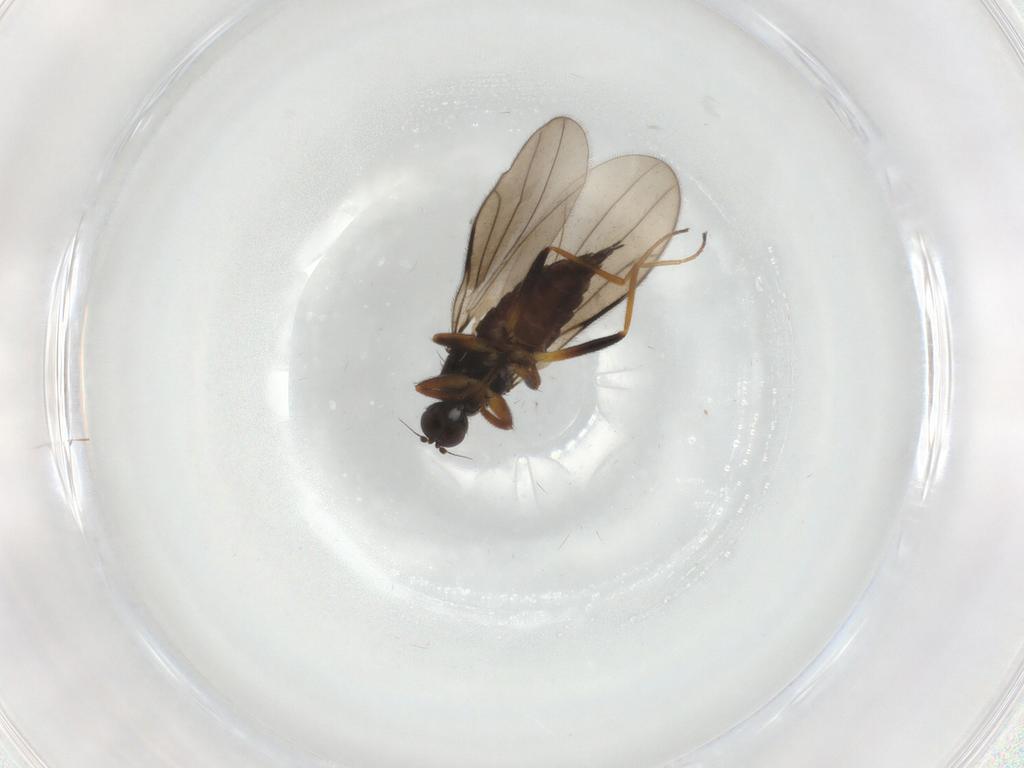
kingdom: Animalia
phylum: Arthropoda
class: Insecta
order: Diptera
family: Hybotidae
